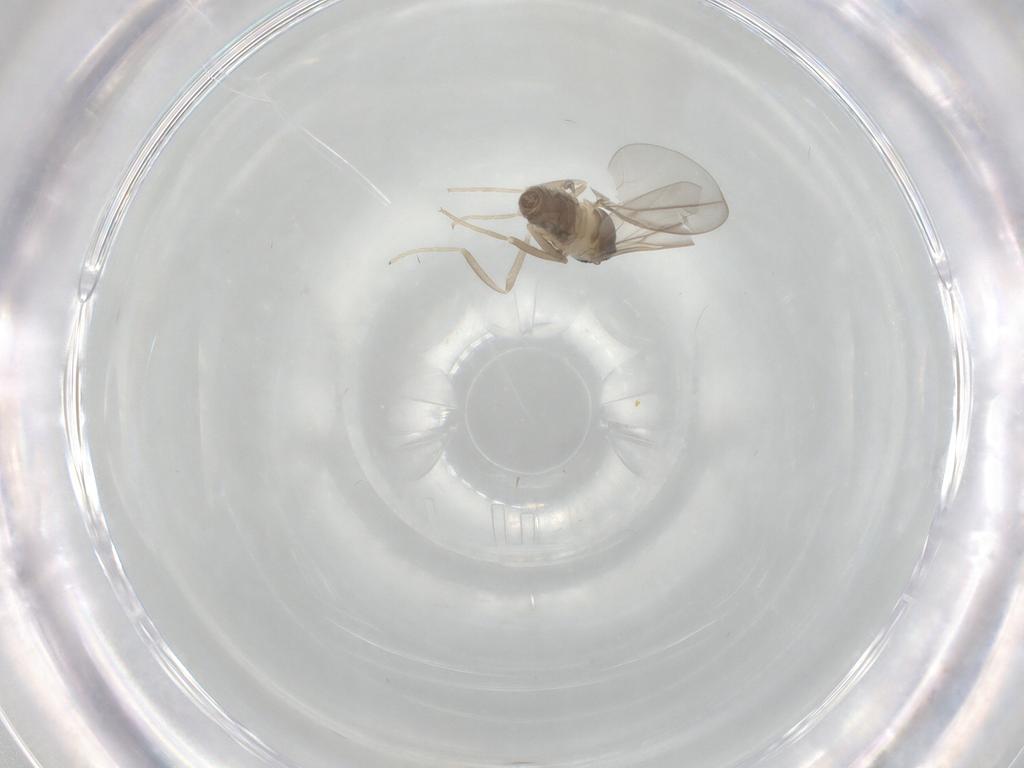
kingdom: Animalia
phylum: Arthropoda
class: Insecta
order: Diptera
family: Cecidomyiidae
